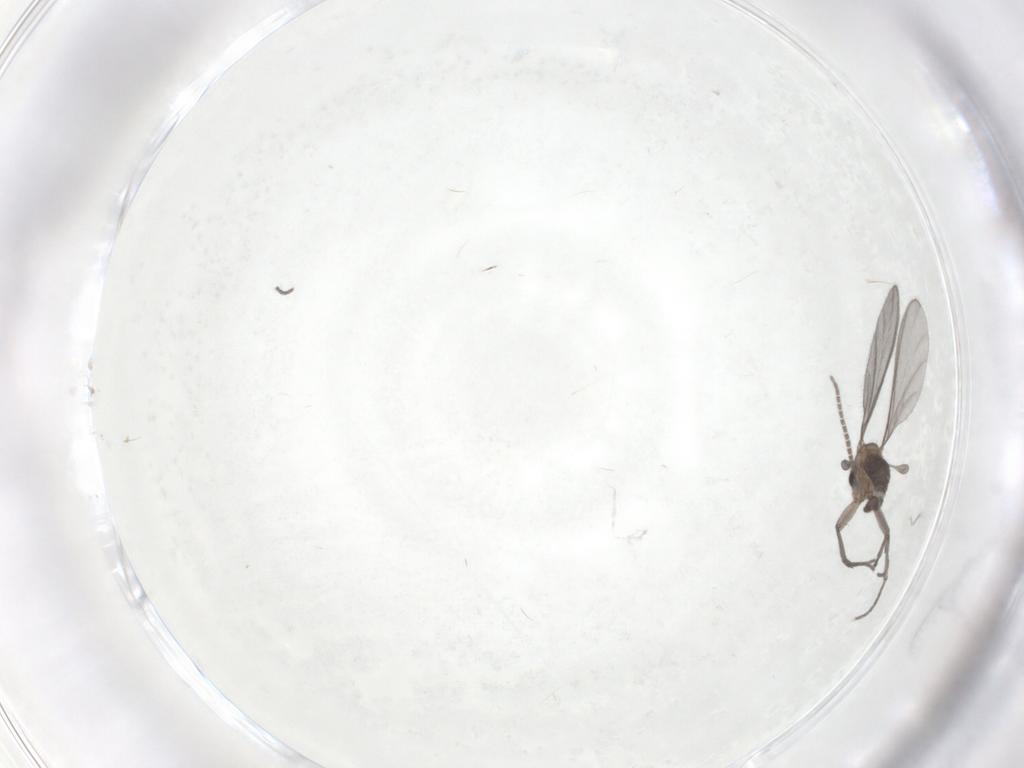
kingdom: Animalia
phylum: Arthropoda
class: Insecta
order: Diptera
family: Sciaridae
